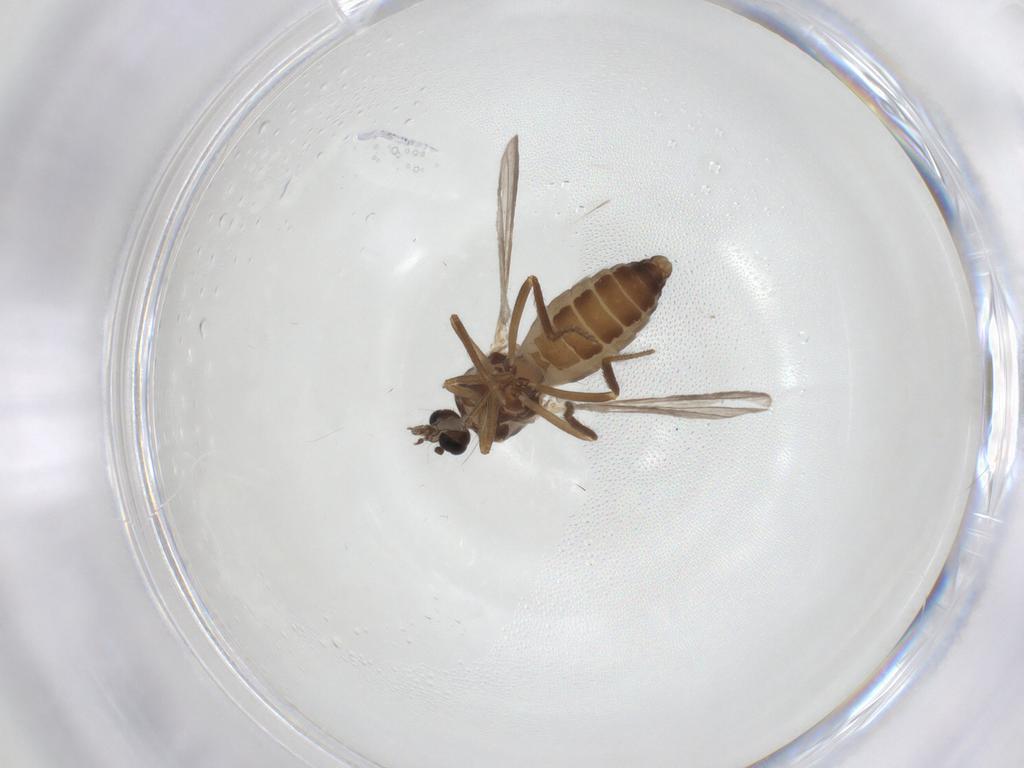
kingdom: Animalia
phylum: Arthropoda
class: Insecta
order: Diptera
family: Ceratopogonidae
